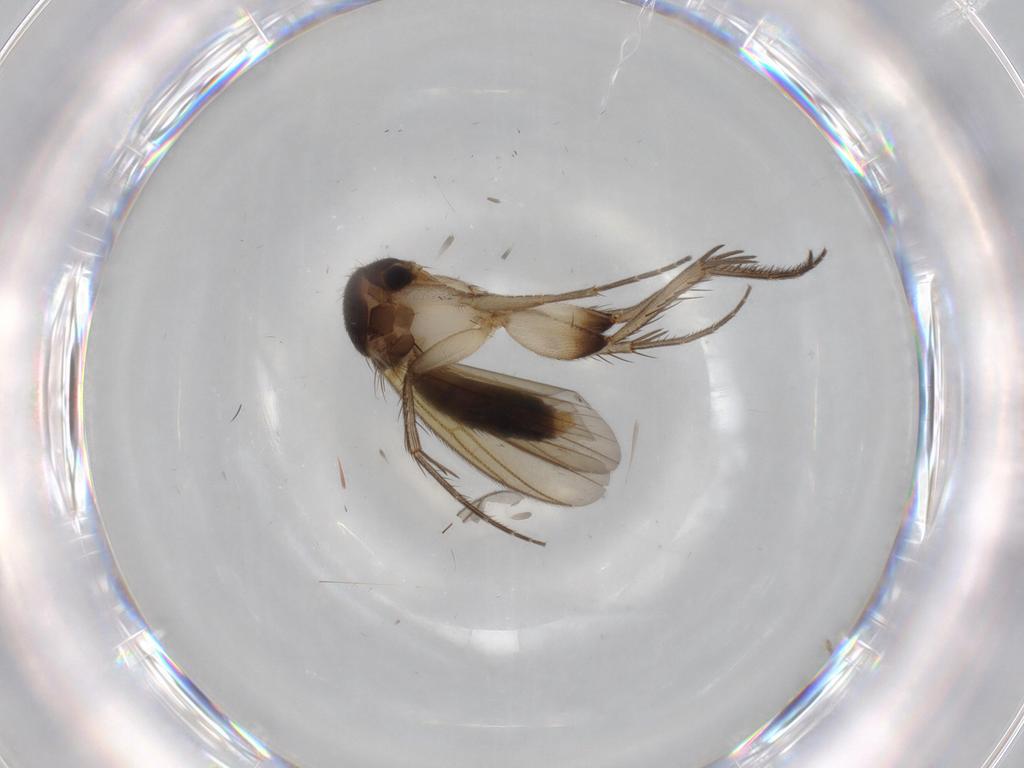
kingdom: Animalia
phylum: Arthropoda
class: Insecta
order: Diptera
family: Mycetophilidae
